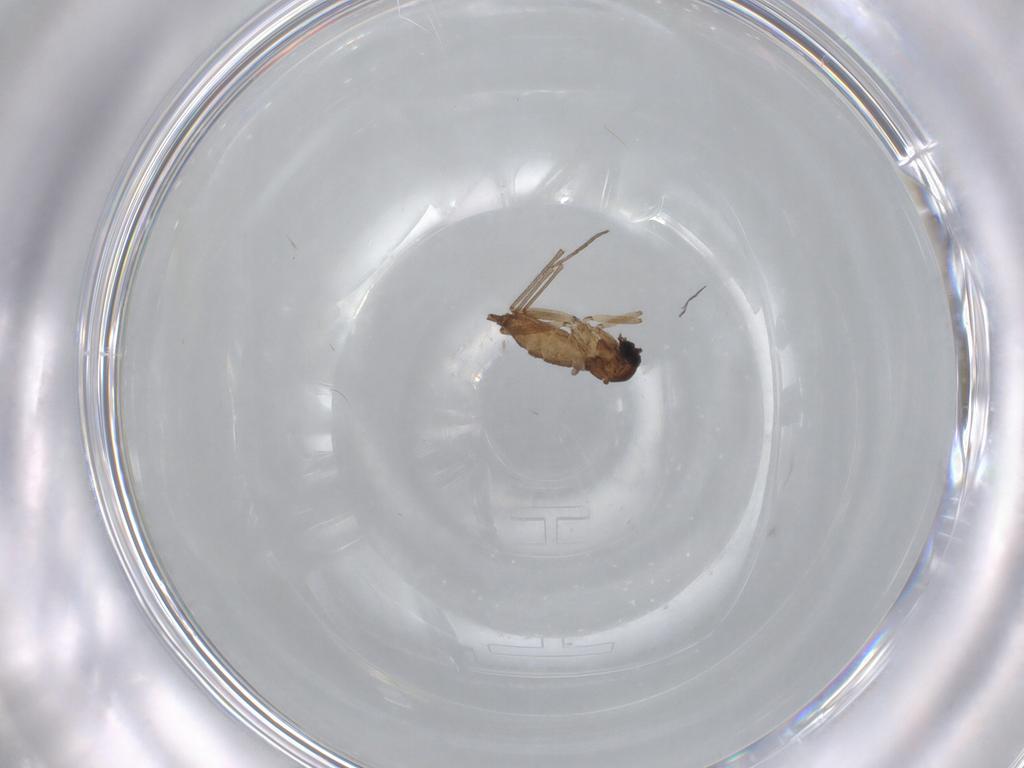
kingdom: Animalia
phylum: Arthropoda
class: Insecta
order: Diptera
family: Sciaridae
